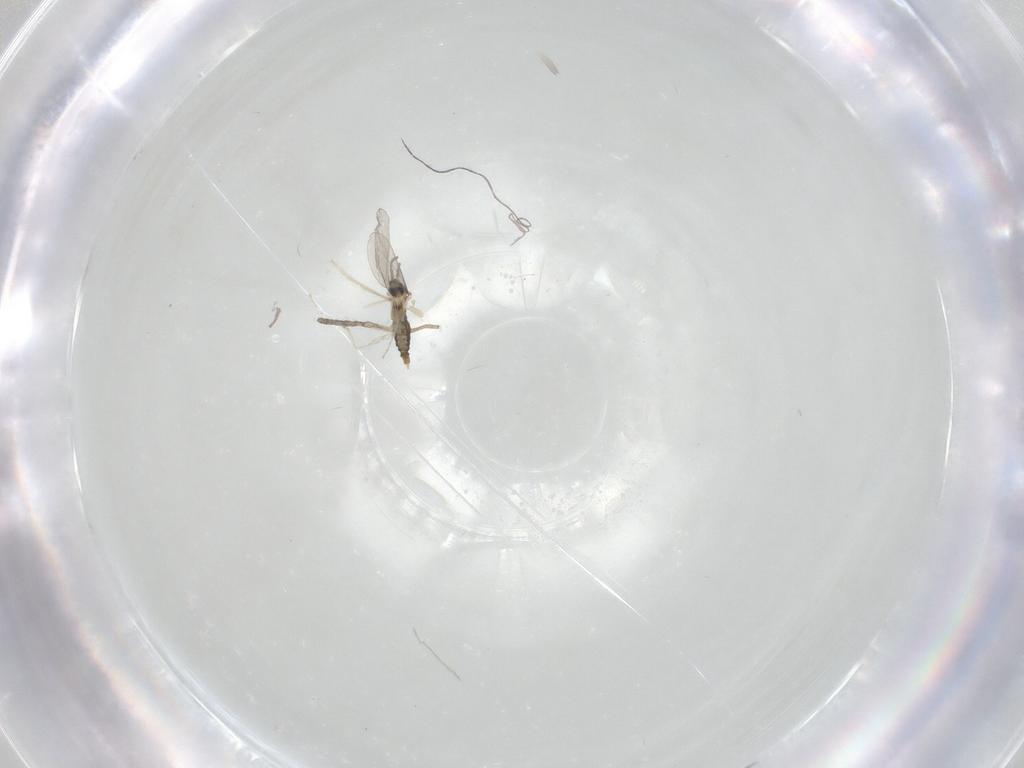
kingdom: Animalia
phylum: Arthropoda
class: Insecta
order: Diptera
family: Cecidomyiidae
